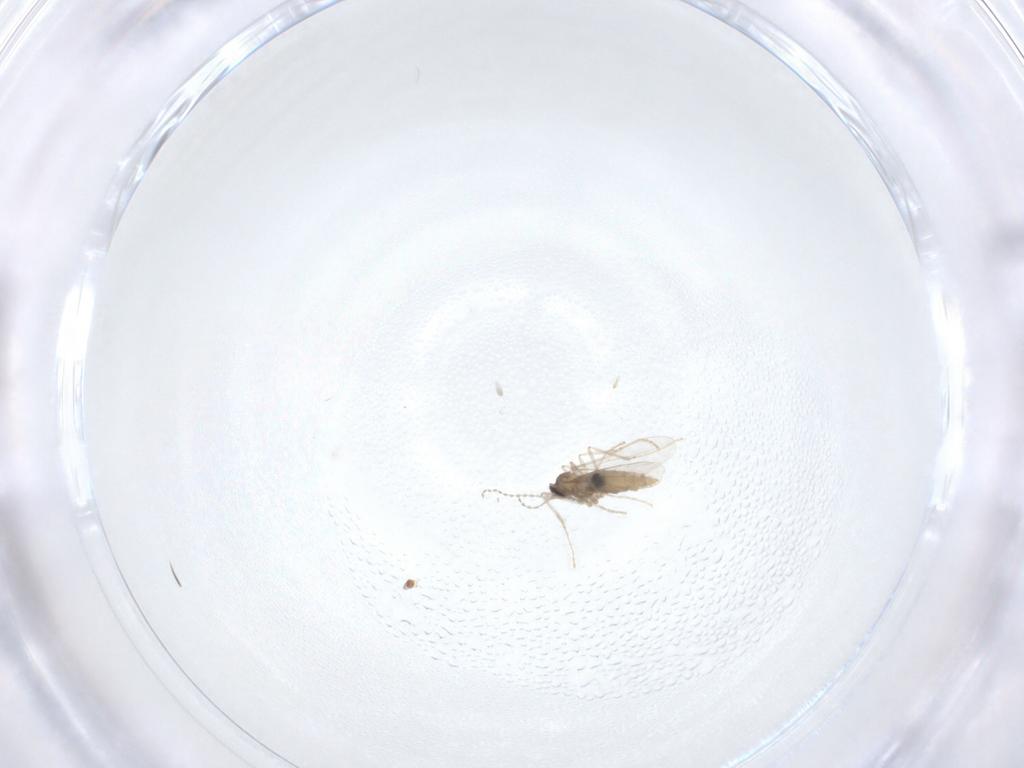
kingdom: Animalia
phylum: Arthropoda
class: Insecta
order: Diptera
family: Cecidomyiidae
